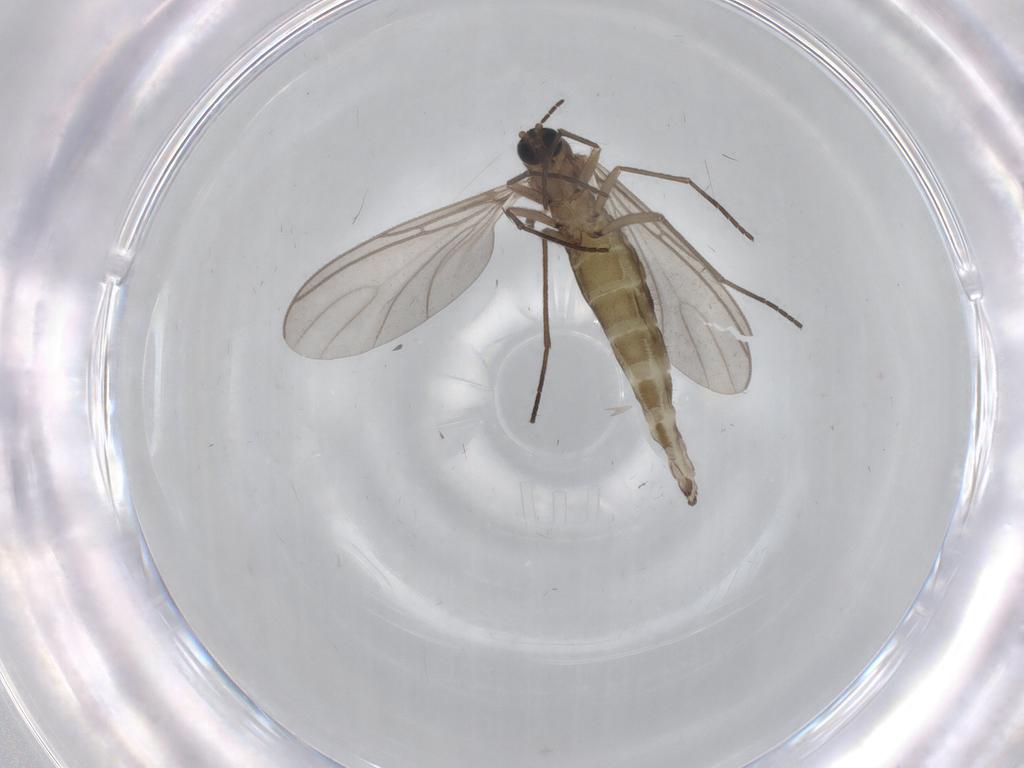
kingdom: Animalia
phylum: Arthropoda
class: Insecta
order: Diptera
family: Cecidomyiidae
